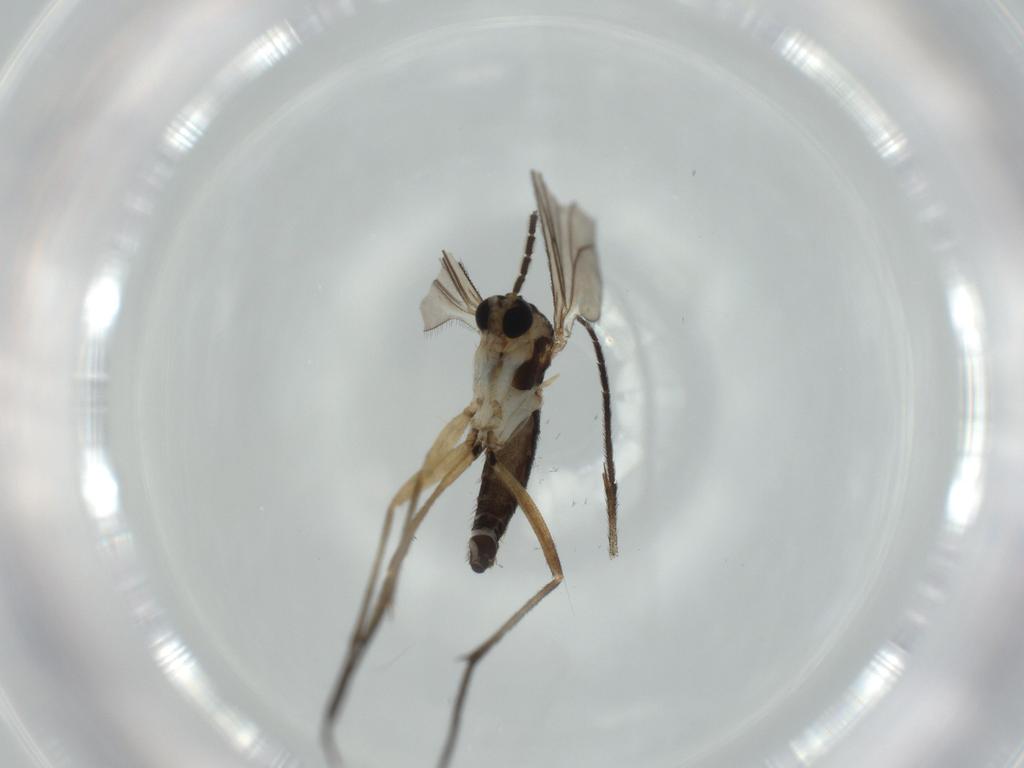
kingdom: Animalia
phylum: Arthropoda
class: Insecta
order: Diptera
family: Sciaridae
